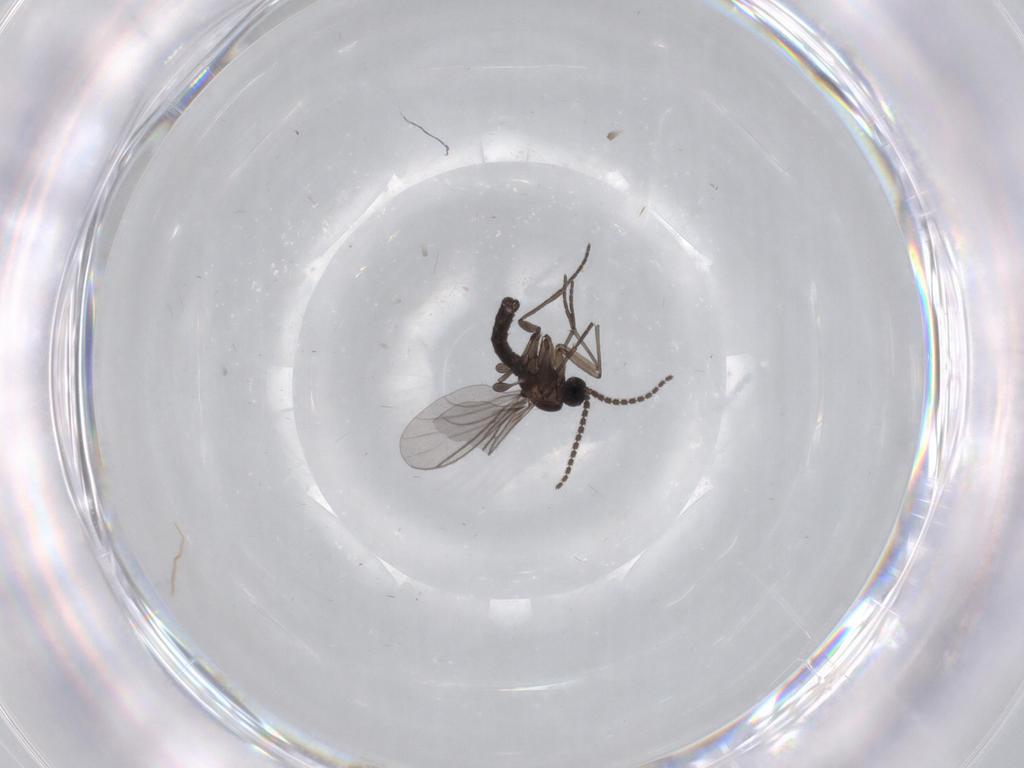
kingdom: Animalia
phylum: Arthropoda
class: Insecta
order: Diptera
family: Sciaridae
